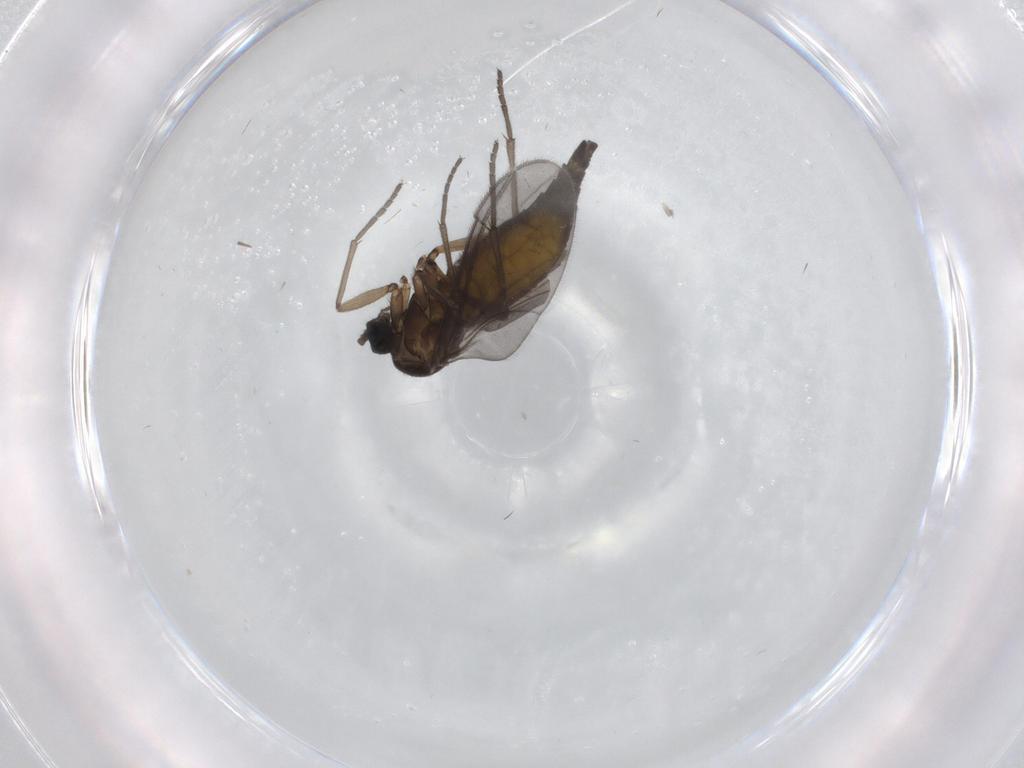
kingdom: Animalia
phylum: Arthropoda
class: Insecta
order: Diptera
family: Sciaridae
